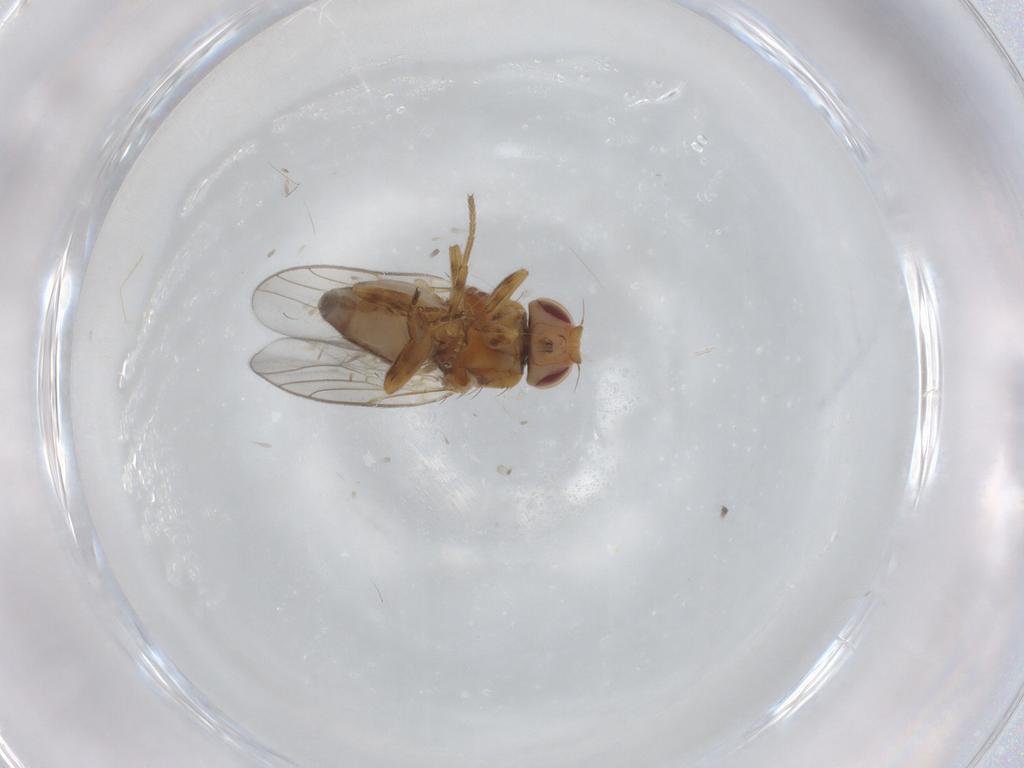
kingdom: Animalia
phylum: Arthropoda
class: Insecta
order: Diptera
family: Chloropidae
